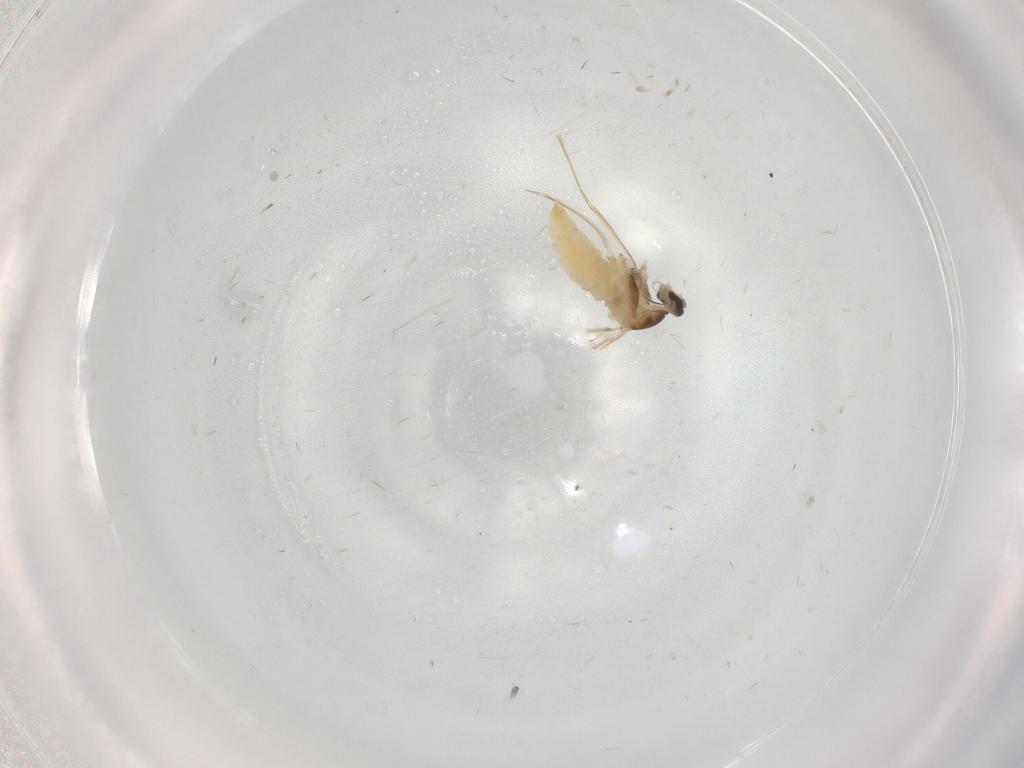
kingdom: Animalia
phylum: Arthropoda
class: Insecta
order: Diptera
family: Cecidomyiidae
